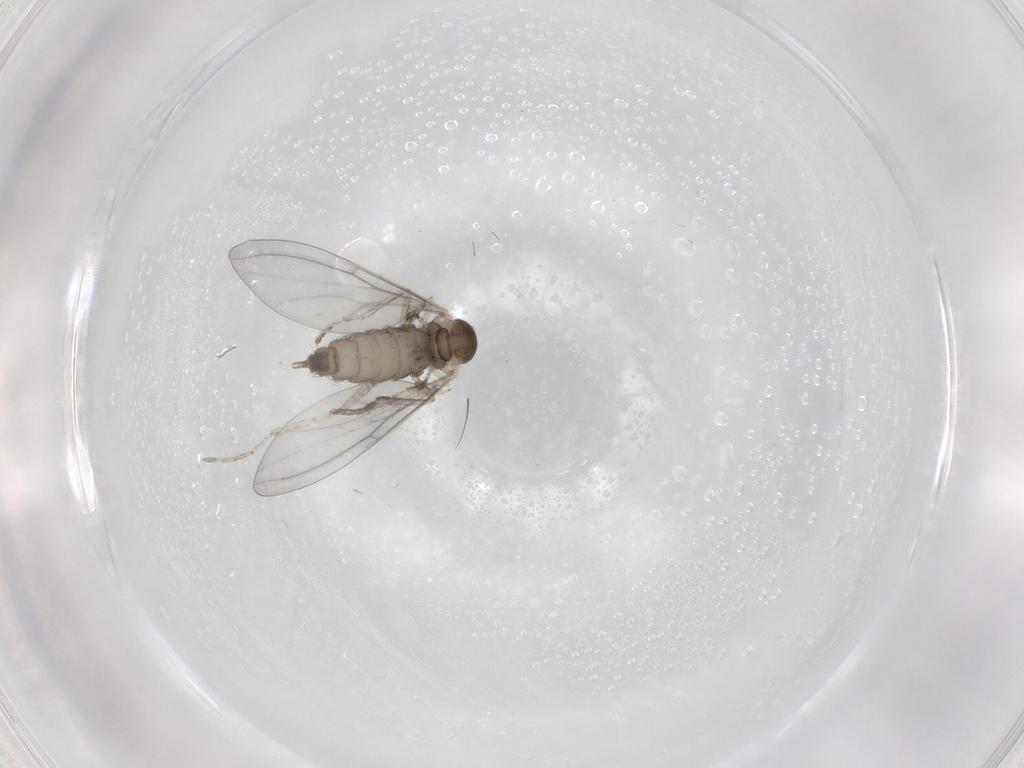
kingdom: Animalia
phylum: Arthropoda
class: Insecta
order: Diptera
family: Cecidomyiidae
